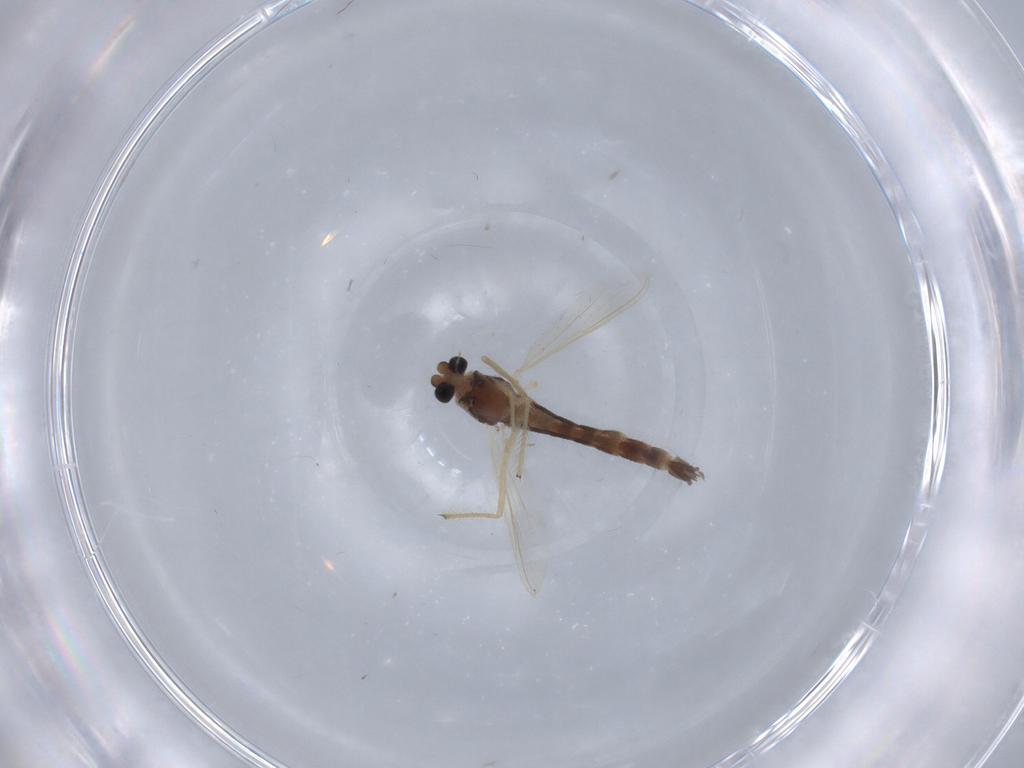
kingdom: Animalia
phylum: Arthropoda
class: Insecta
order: Diptera
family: Chironomidae
